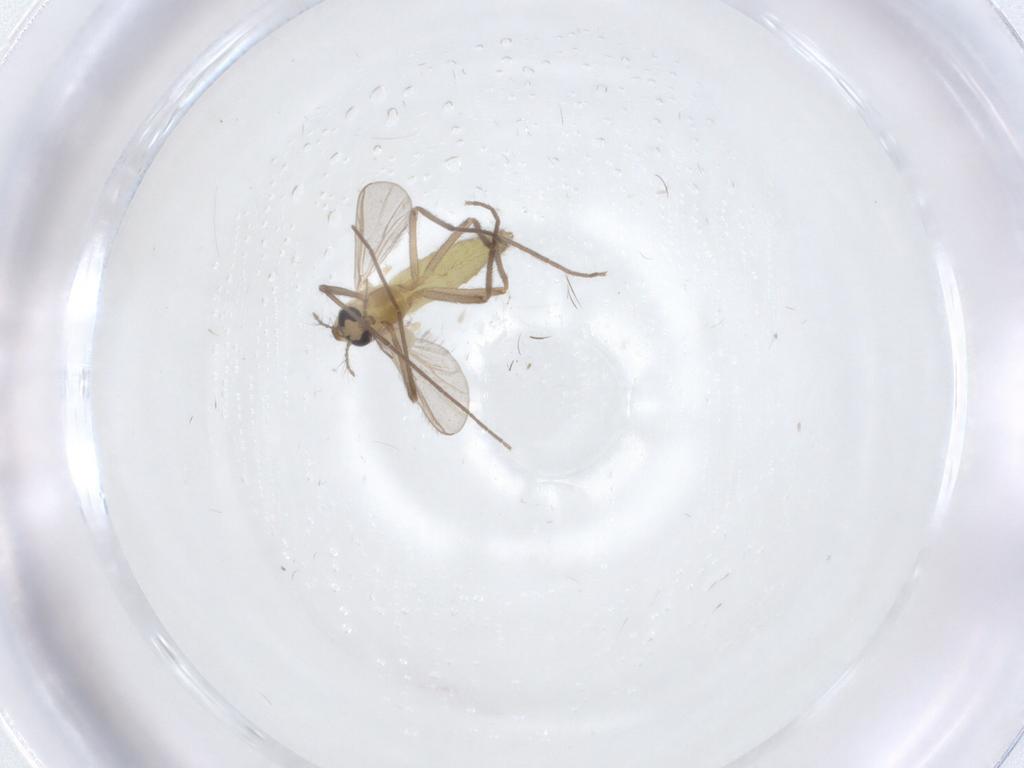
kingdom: Animalia
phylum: Arthropoda
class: Insecta
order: Diptera
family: Chironomidae
